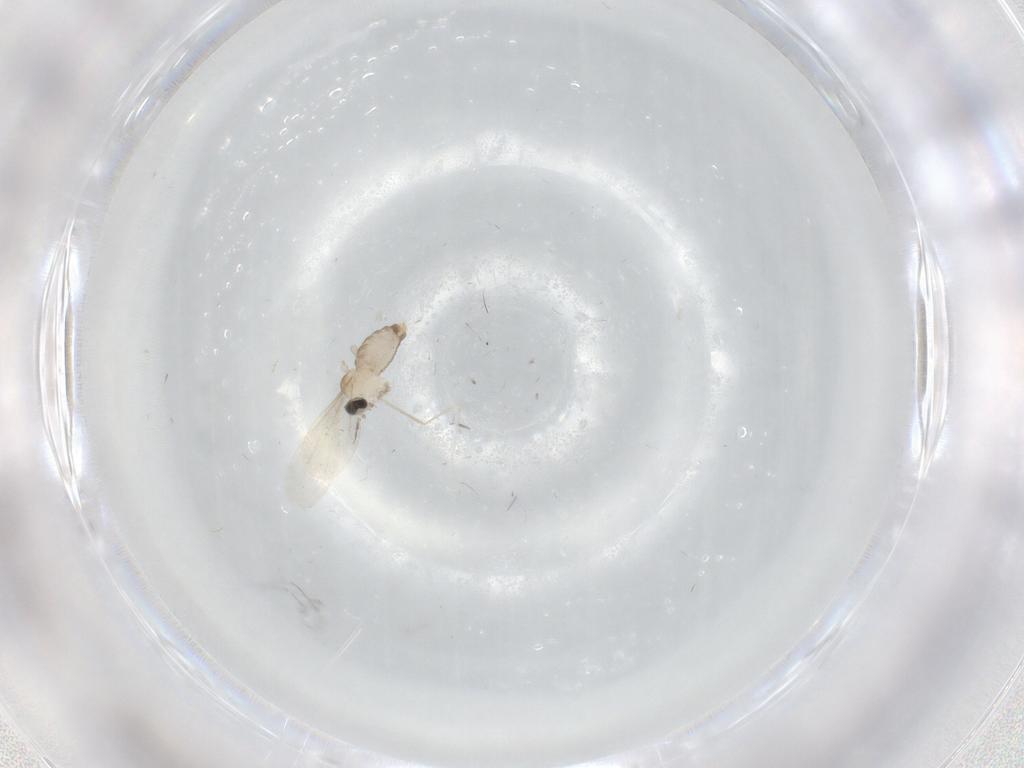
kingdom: Animalia
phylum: Arthropoda
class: Insecta
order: Diptera
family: Cecidomyiidae
